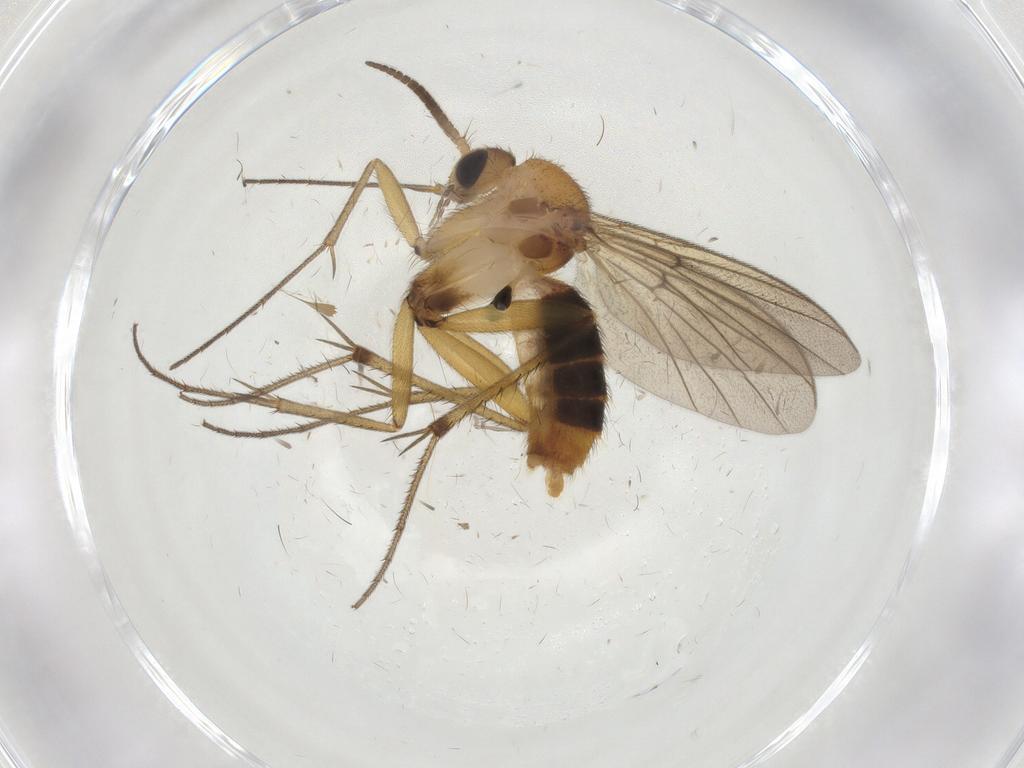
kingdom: Animalia
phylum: Arthropoda
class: Insecta
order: Diptera
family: Mycetophilidae
